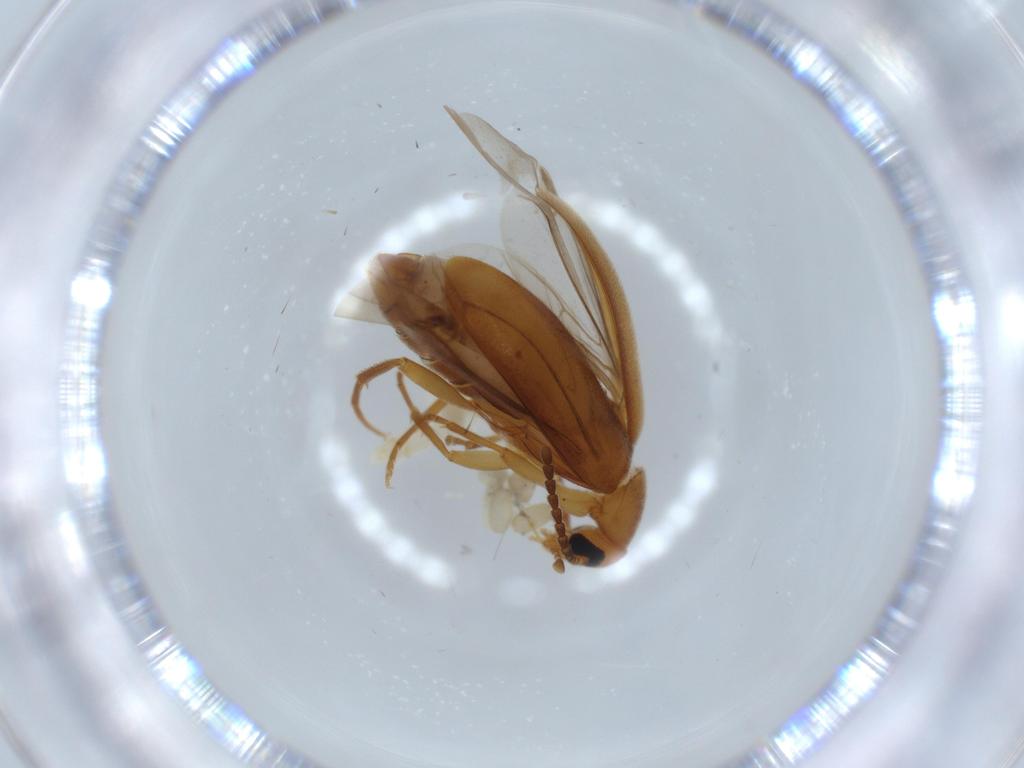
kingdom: Animalia
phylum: Arthropoda
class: Insecta
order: Coleoptera
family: Scraptiidae
